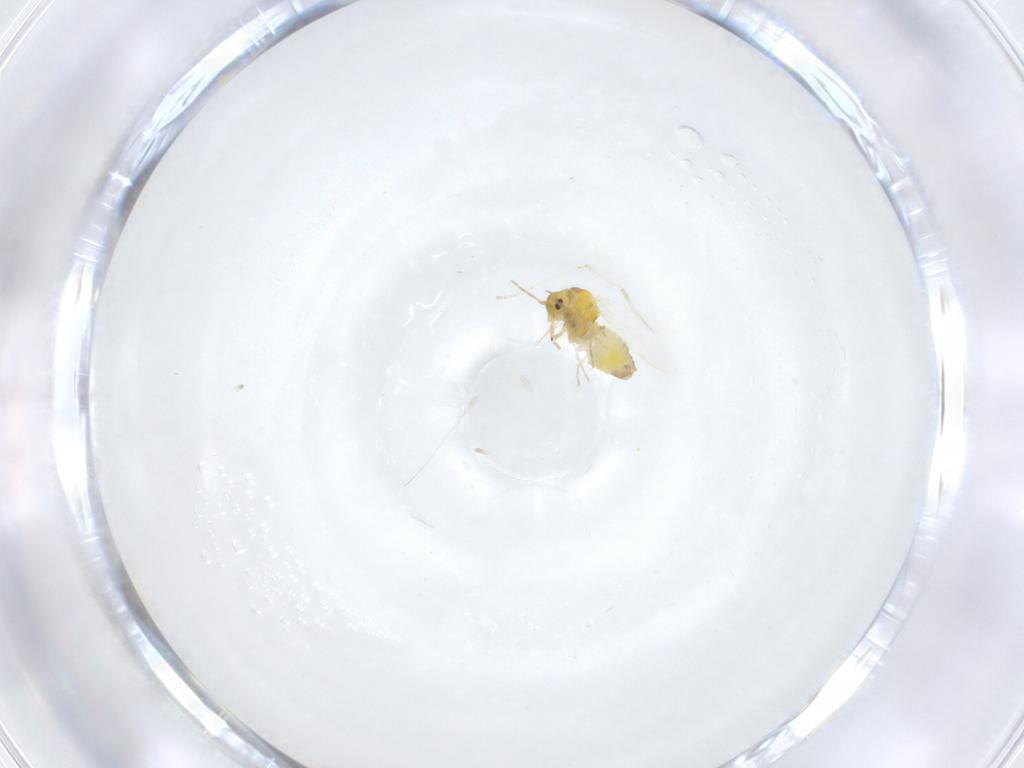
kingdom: Animalia
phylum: Arthropoda
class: Insecta
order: Hemiptera
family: Aleyrodidae
